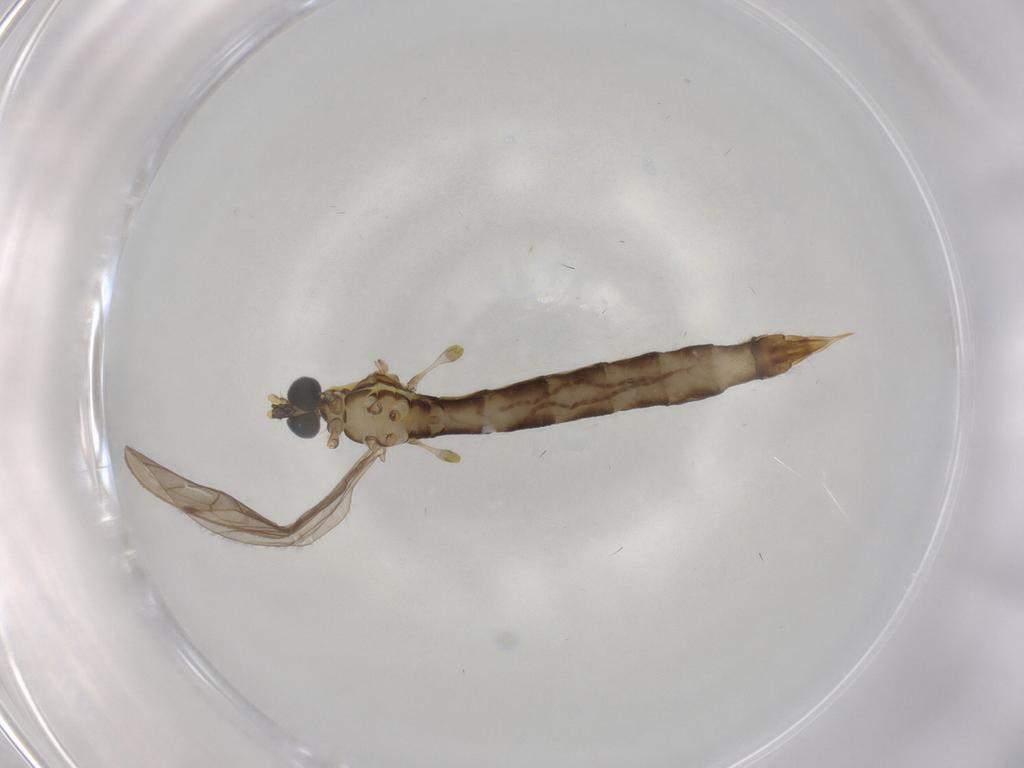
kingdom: Animalia
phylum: Arthropoda
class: Insecta
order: Diptera
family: Limoniidae
